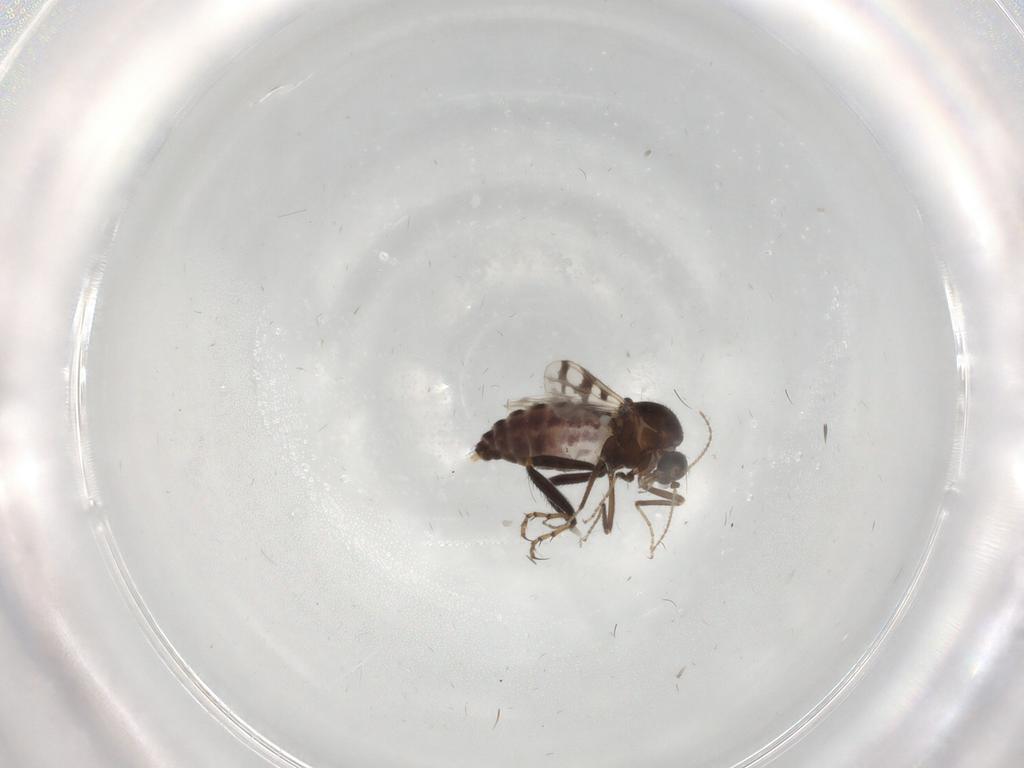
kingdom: Animalia
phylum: Arthropoda
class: Insecta
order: Diptera
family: Ceratopogonidae
